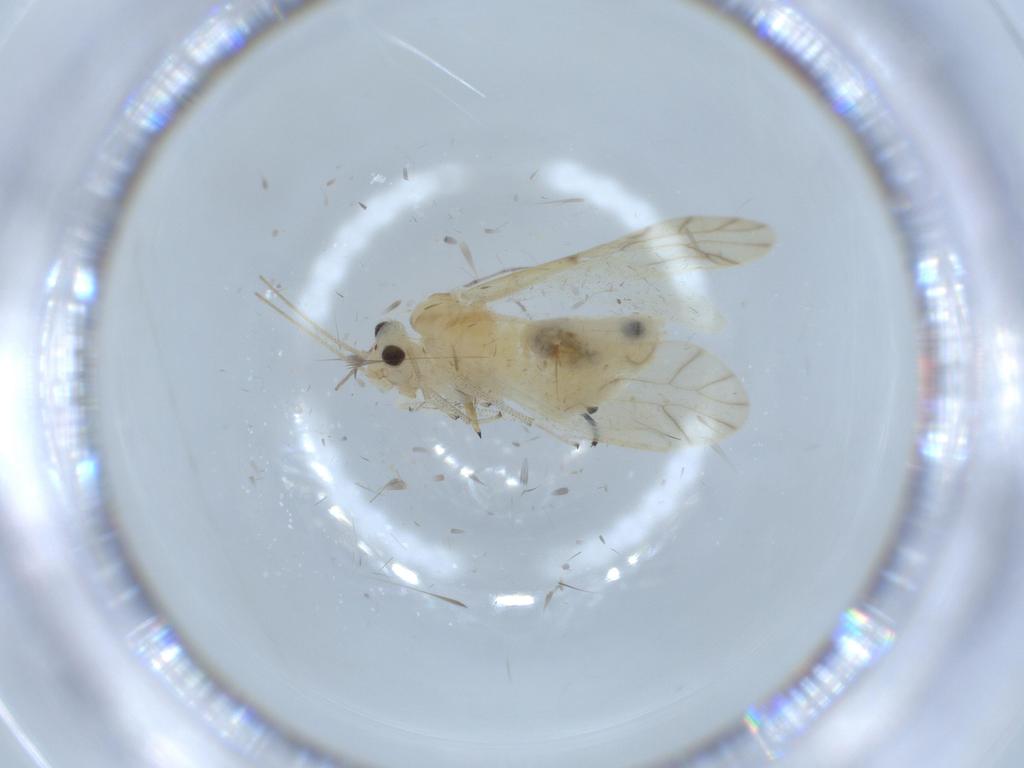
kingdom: Animalia
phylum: Arthropoda
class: Insecta
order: Psocodea
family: Caeciliusidae
